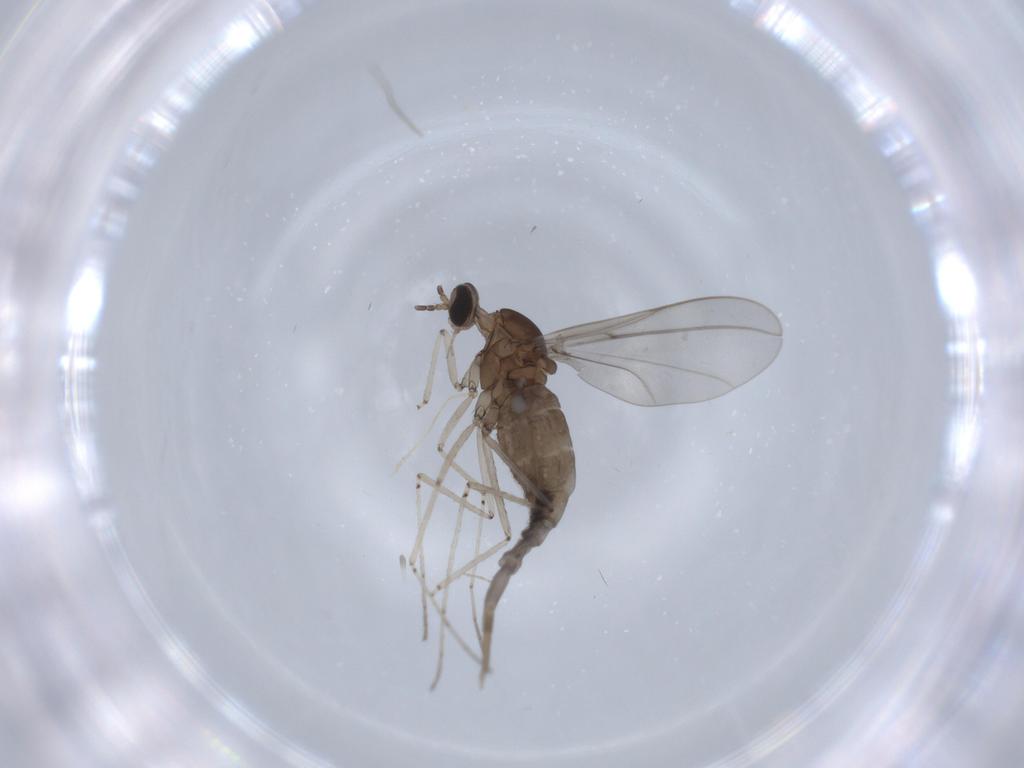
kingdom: Animalia
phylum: Arthropoda
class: Insecta
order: Diptera
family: Cecidomyiidae
